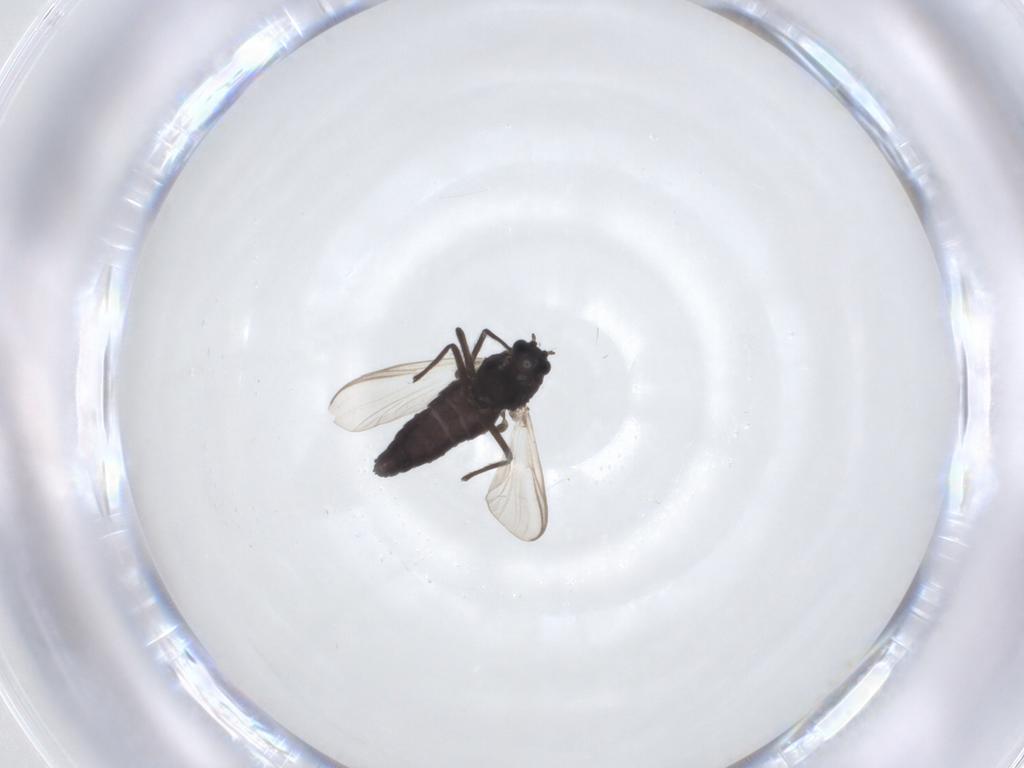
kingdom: Animalia
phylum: Arthropoda
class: Insecta
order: Diptera
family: Chironomidae
